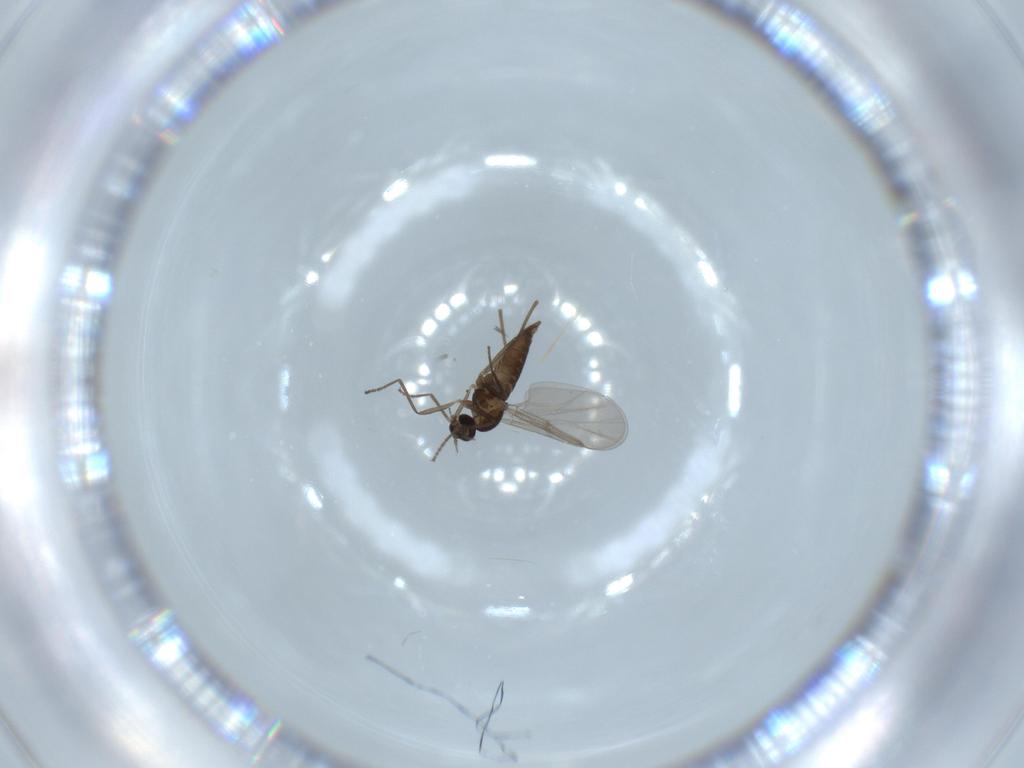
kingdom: Animalia
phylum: Arthropoda
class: Insecta
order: Diptera
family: Cecidomyiidae
